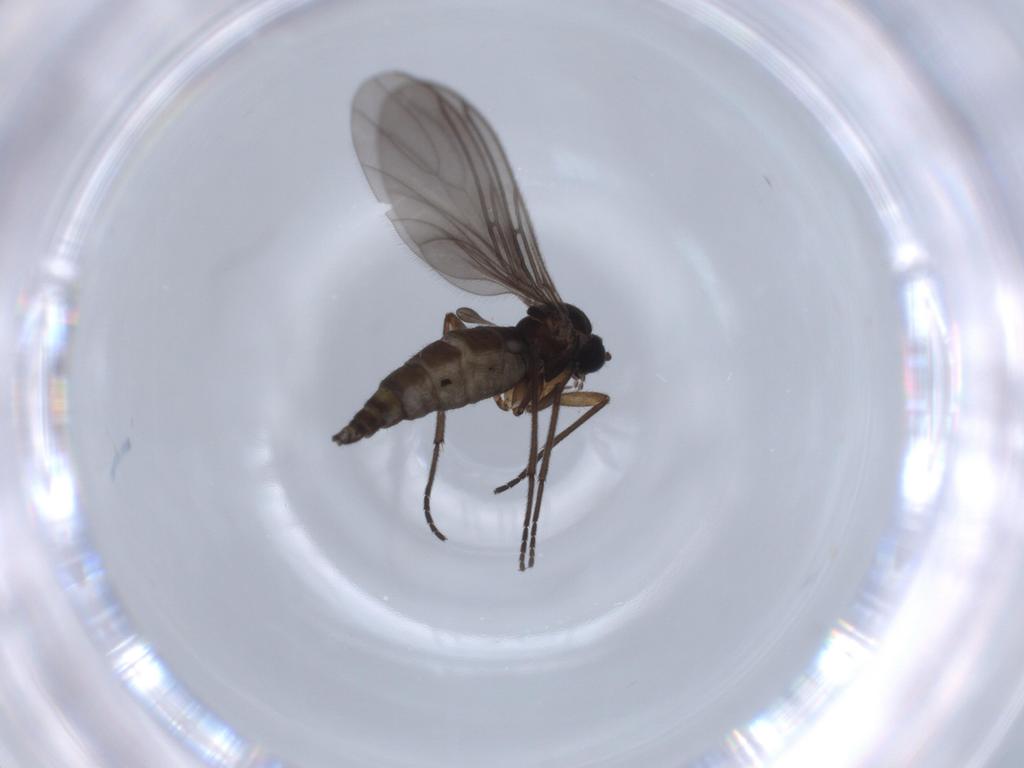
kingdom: Animalia
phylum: Arthropoda
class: Insecta
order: Diptera
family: Sciaridae
